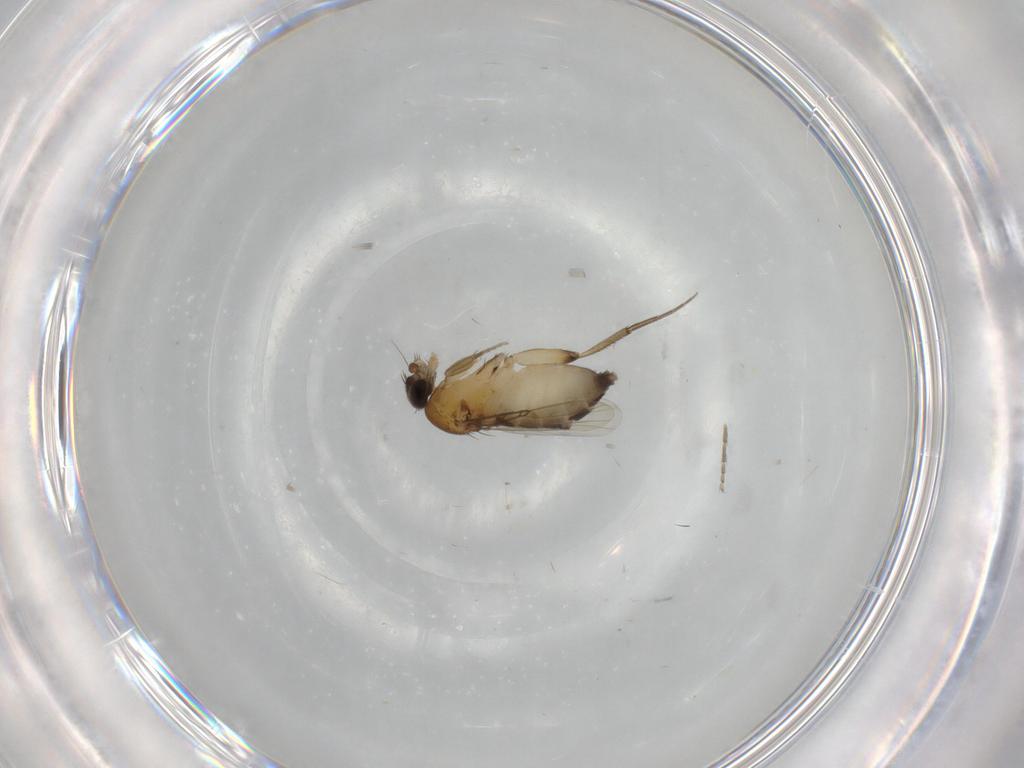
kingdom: Animalia
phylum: Arthropoda
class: Insecta
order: Diptera
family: Phoridae
